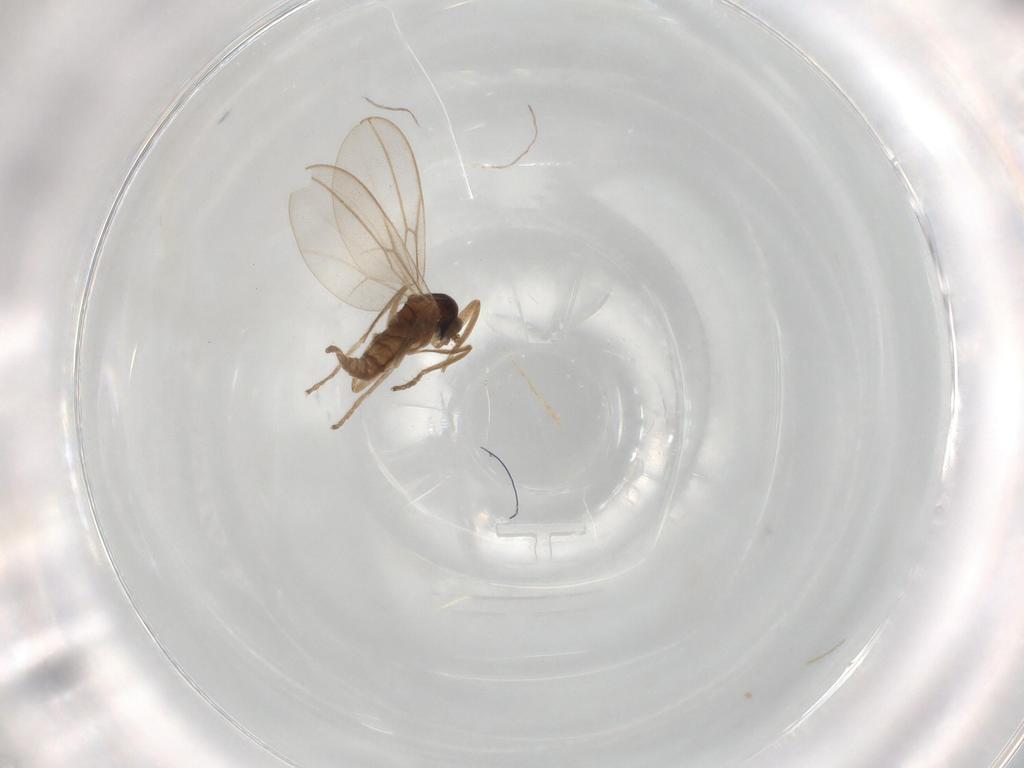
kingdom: Animalia
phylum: Arthropoda
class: Insecta
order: Diptera
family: Cecidomyiidae
